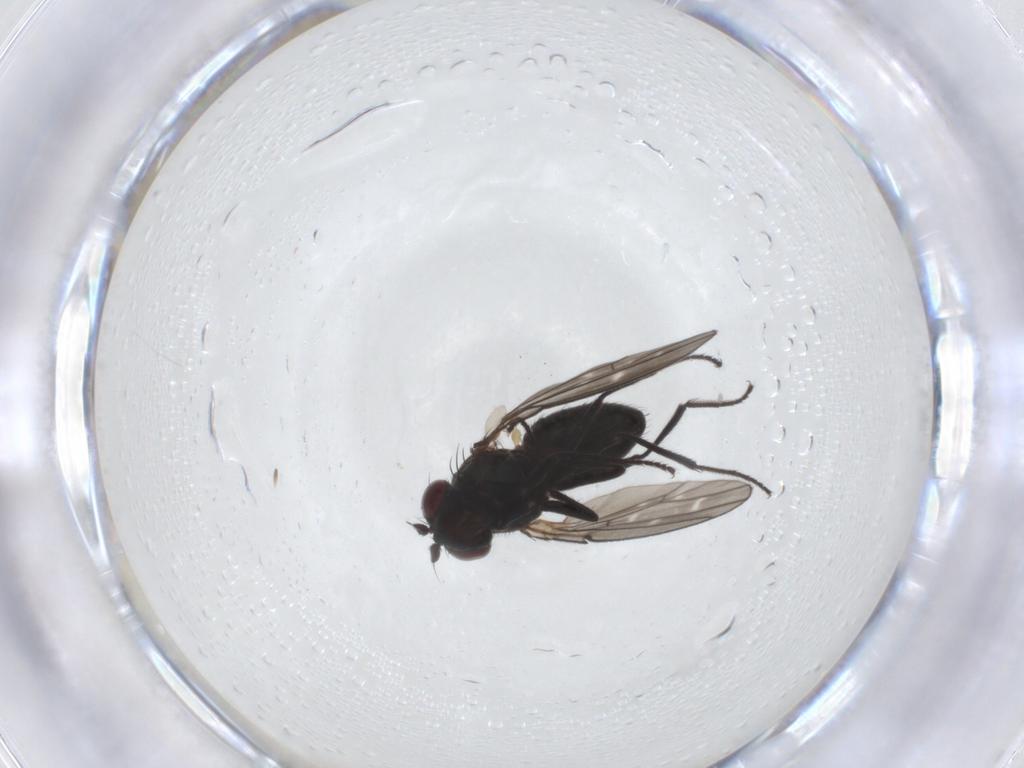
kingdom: Animalia
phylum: Arthropoda
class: Insecta
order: Diptera
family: Ephydridae
